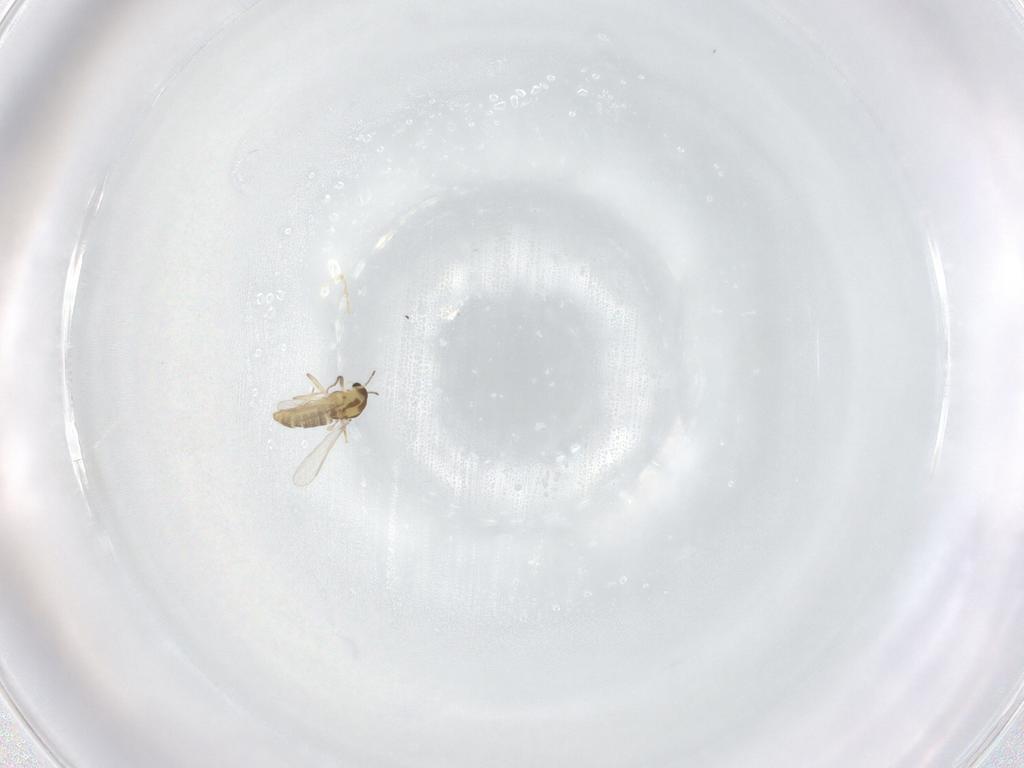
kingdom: Animalia
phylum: Arthropoda
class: Insecta
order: Diptera
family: Chironomidae
